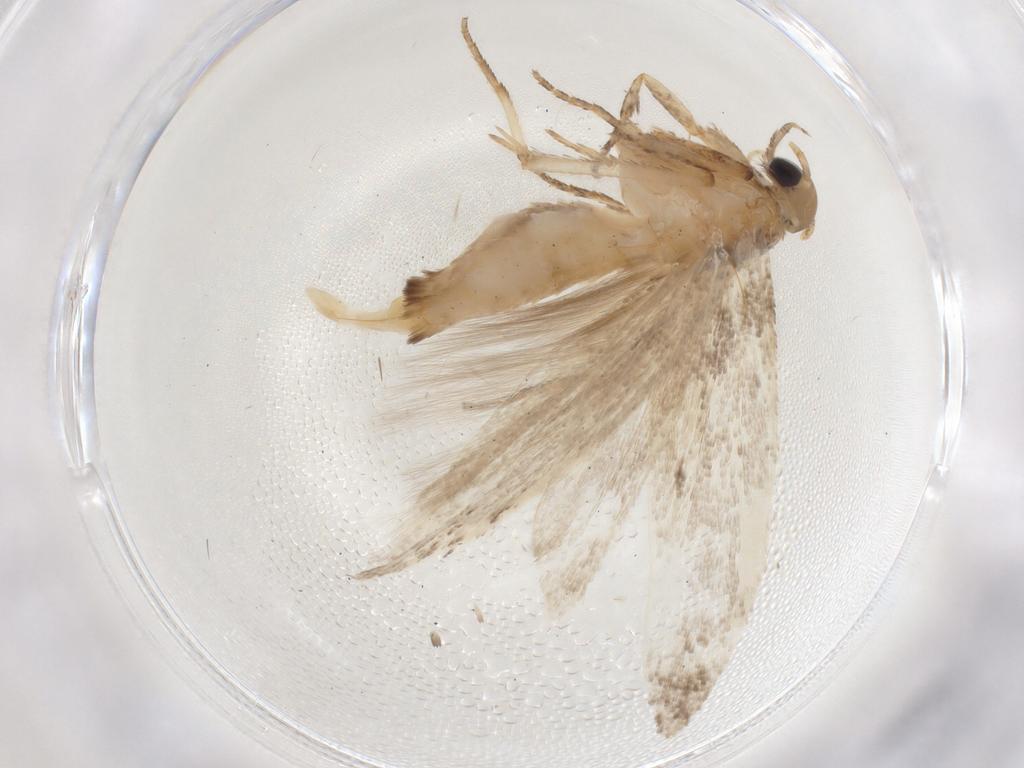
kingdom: Animalia
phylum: Arthropoda
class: Insecta
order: Lepidoptera
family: Gelechiidae
